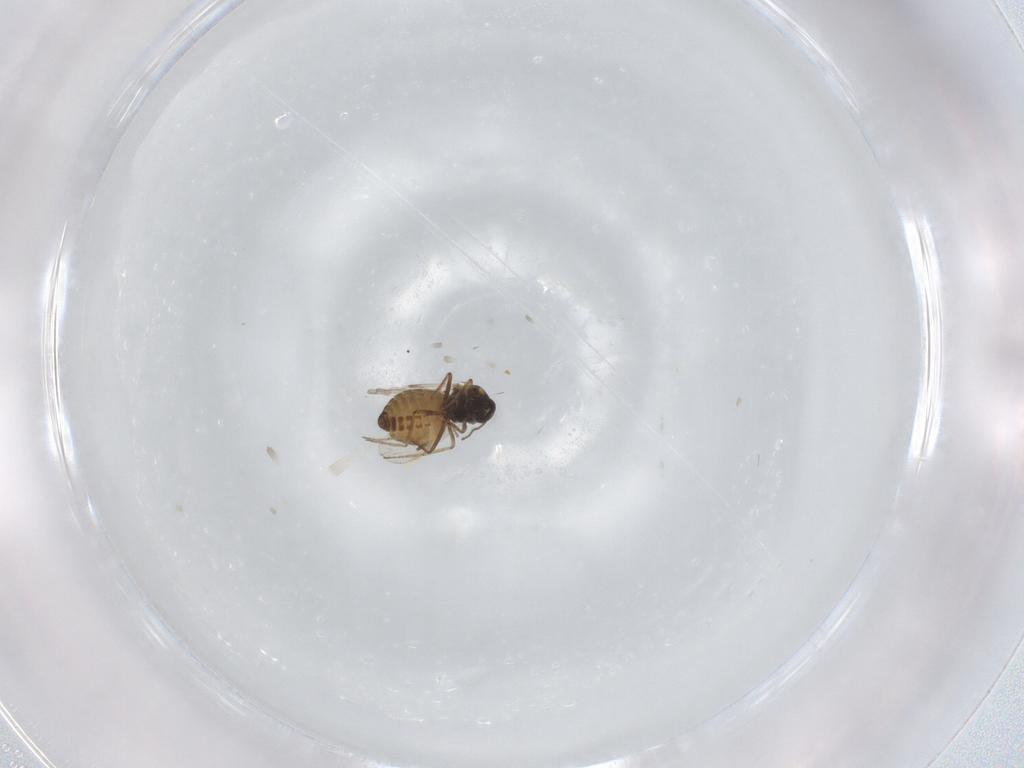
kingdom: Animalia
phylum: Arthropoda
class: Insecta
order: Diptera
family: Ceratopogonidae
